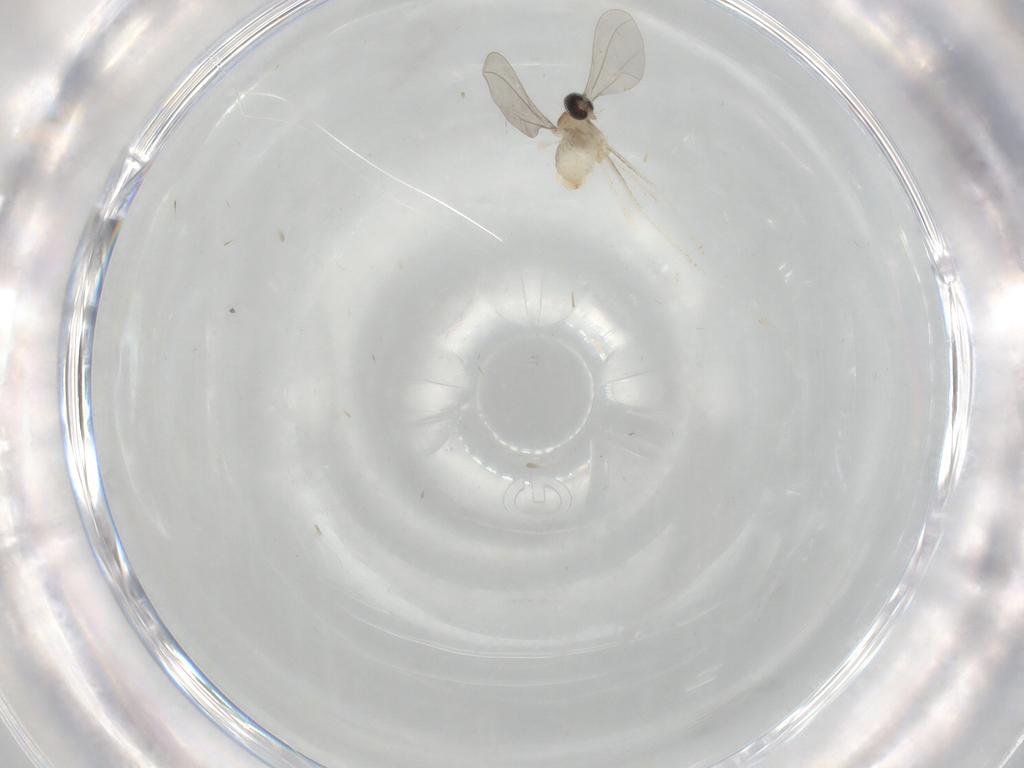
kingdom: Animalia
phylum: Arthropoda
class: Insecta
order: Diptera
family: Cecidomyiidae
